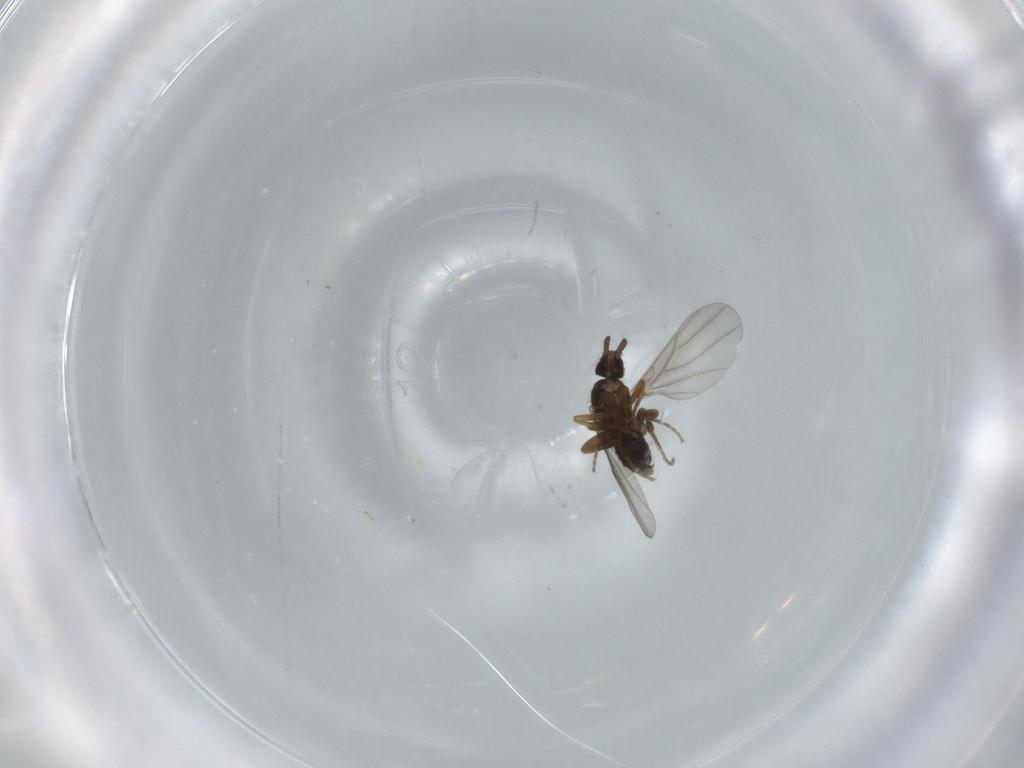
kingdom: Animalia
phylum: Arthropoda
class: Insecta
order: Diptera
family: Phoridae
